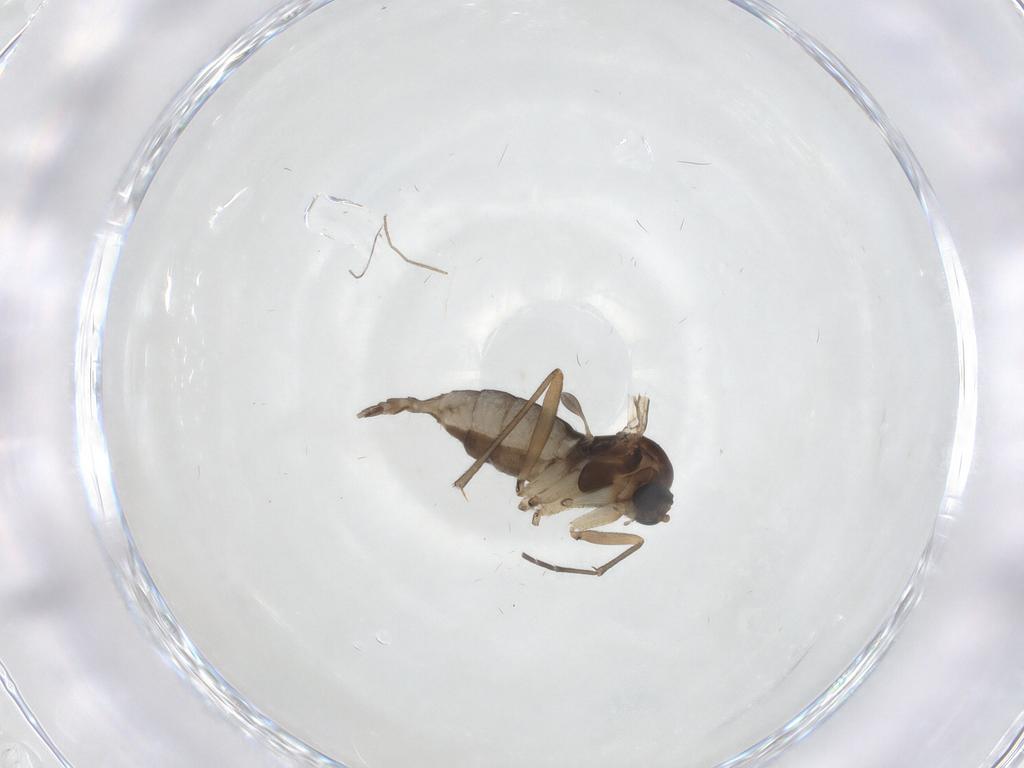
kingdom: Animalia
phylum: Arthropoda
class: Insecta
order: Diptera
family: Sciaridae
